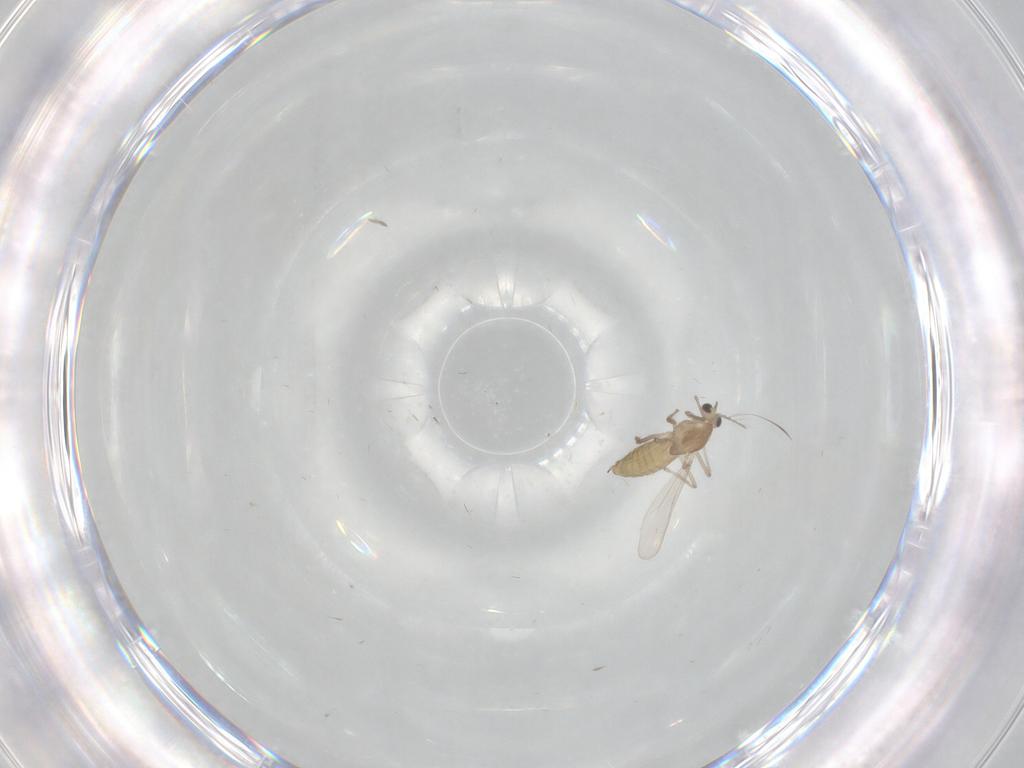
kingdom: Animalia
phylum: Arthropoda
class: Insecta
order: Diptera
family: Chironomidae
